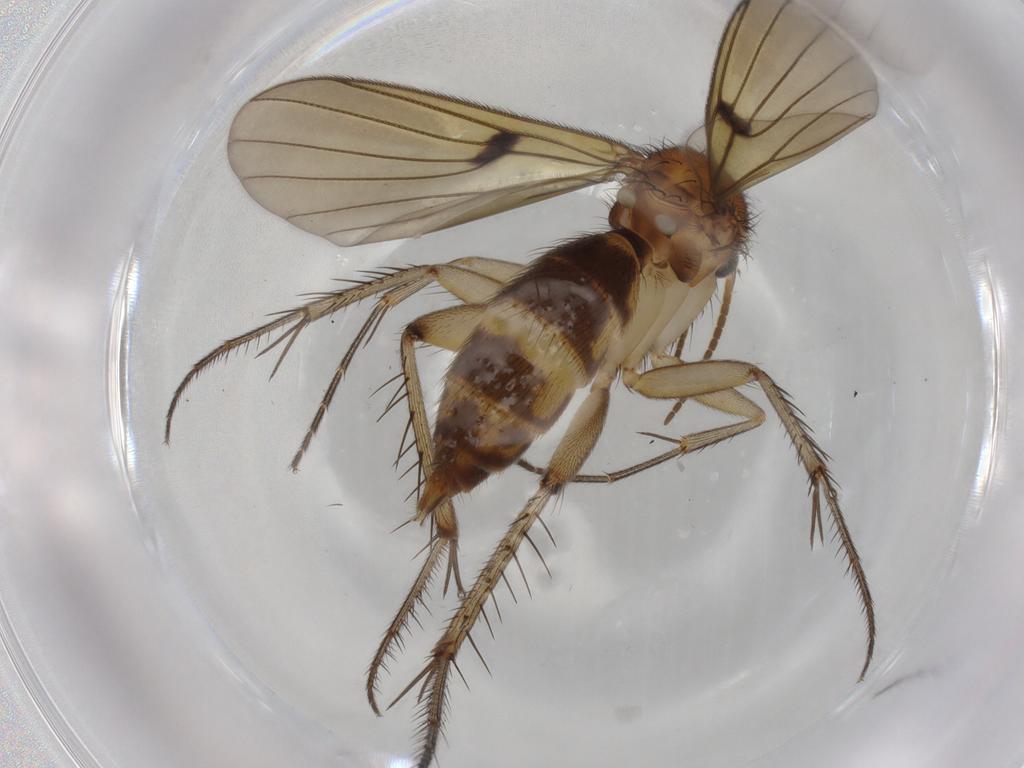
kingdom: Animalia
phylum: Arthropoda
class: Insecta
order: Diptera
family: Mycetophilidae
